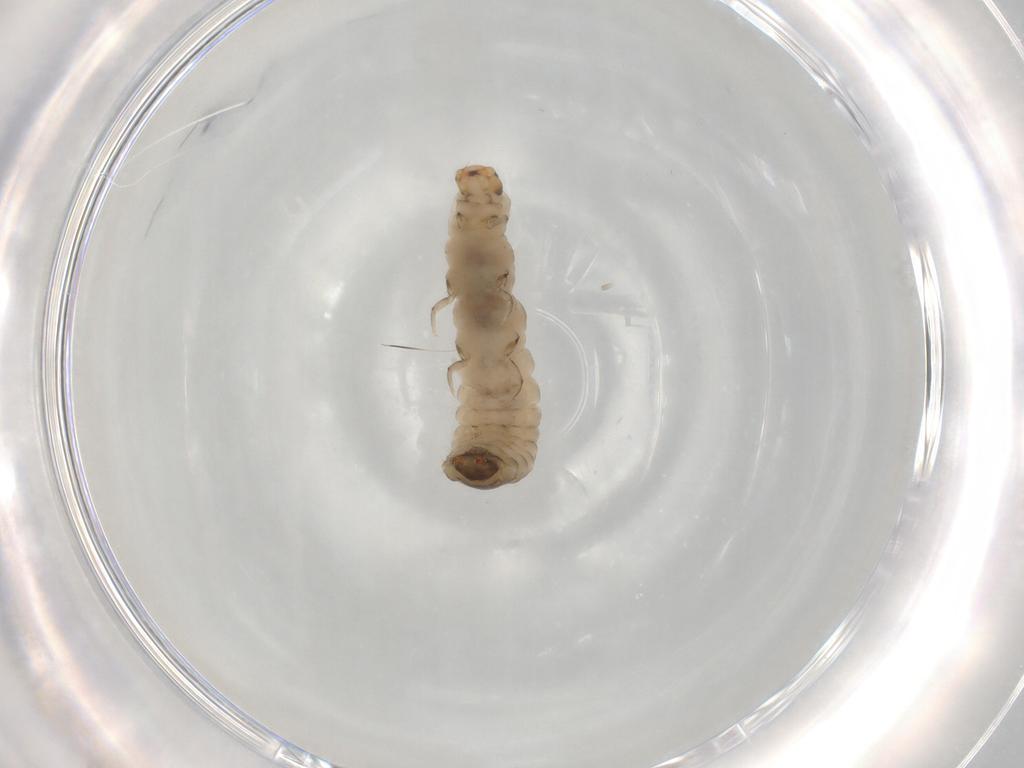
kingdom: Animalia
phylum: Arthropoda
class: Insecta
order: Coleoptera
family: Melyridae
